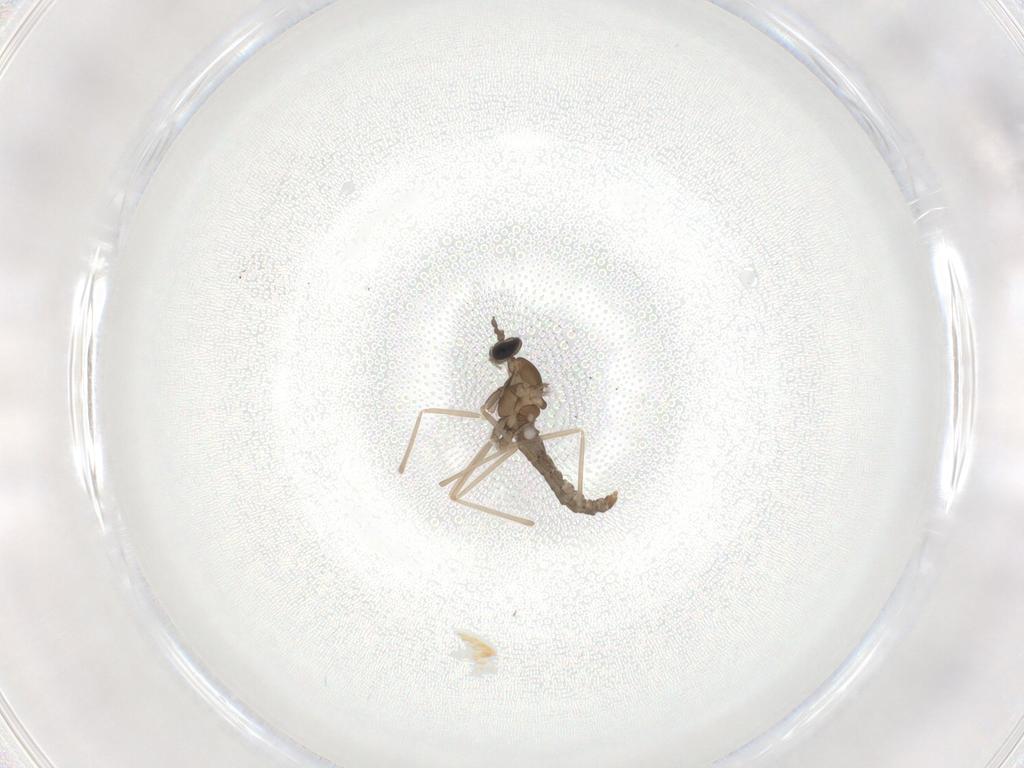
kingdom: Animalia
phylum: Arthropoda
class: Insecta
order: Diptera
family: Cecidomyiidae
